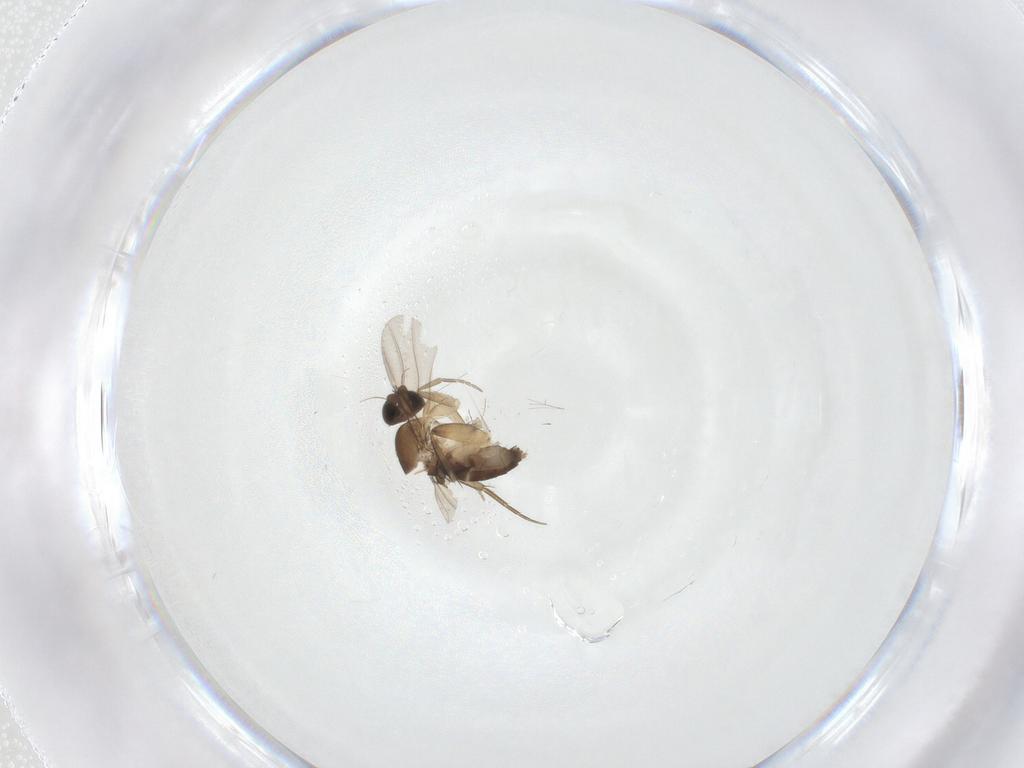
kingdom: Animalia
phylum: Arthropoda
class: Insecta
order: Diptera
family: Phoridae
